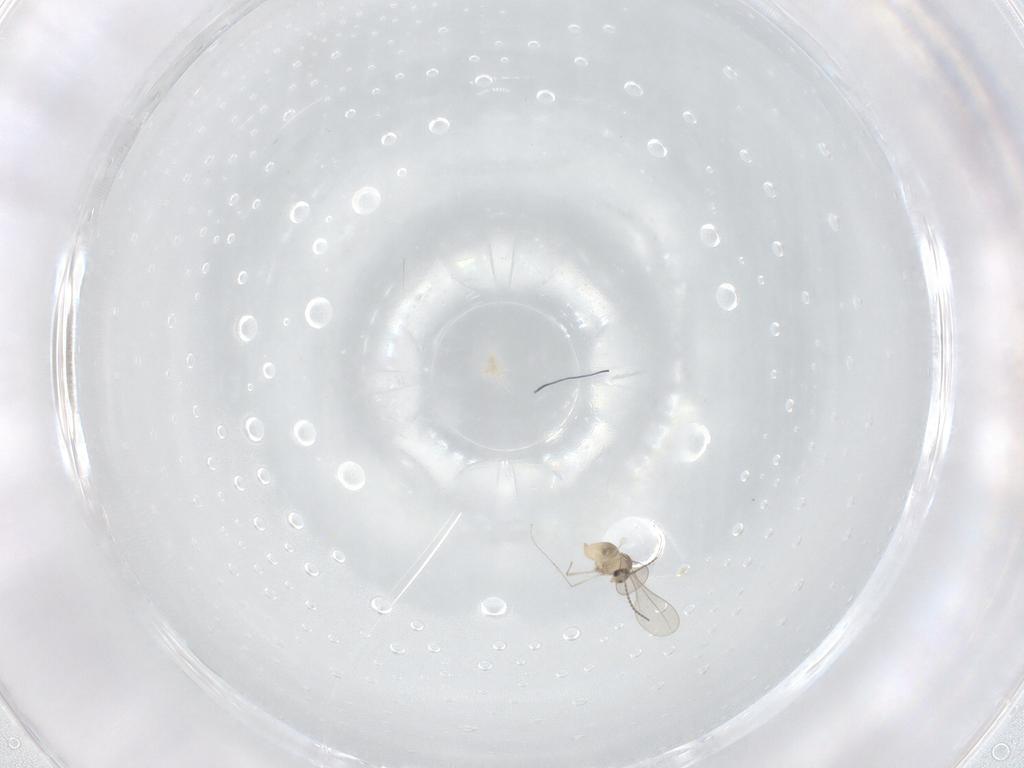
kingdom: Animalia
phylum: Arthropoda
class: Insecta
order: Diptera
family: Cecidomyiidae
